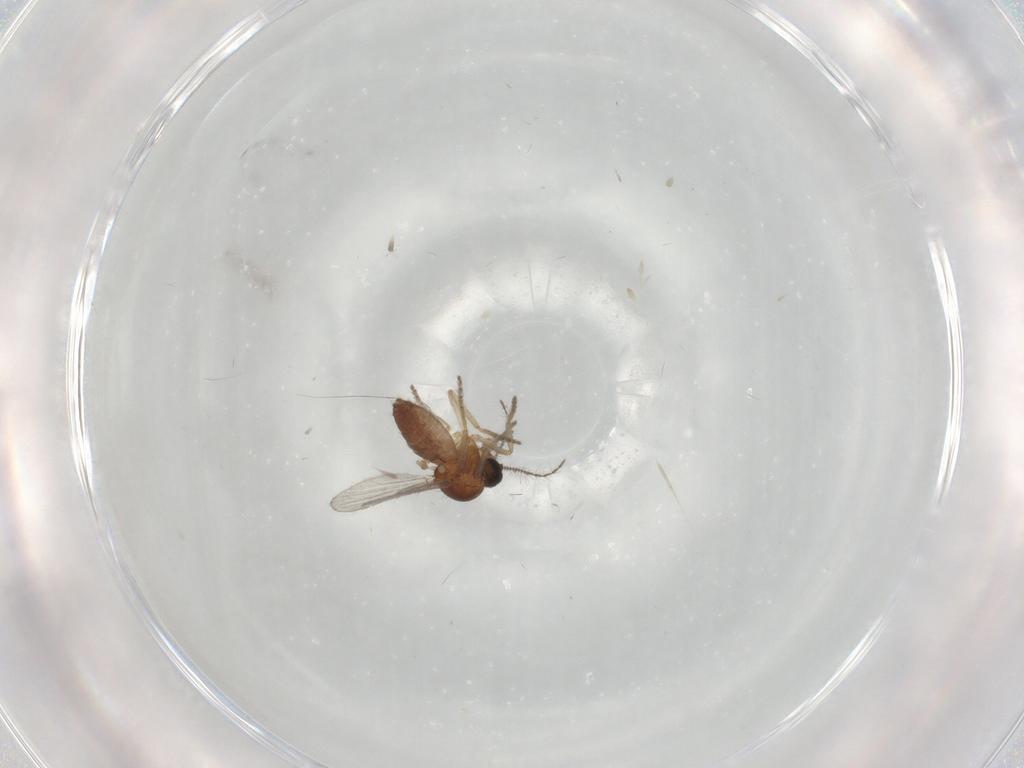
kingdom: Animalia
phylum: Arthropoda
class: Insecta
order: Diptera
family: Ceratopogonidae
